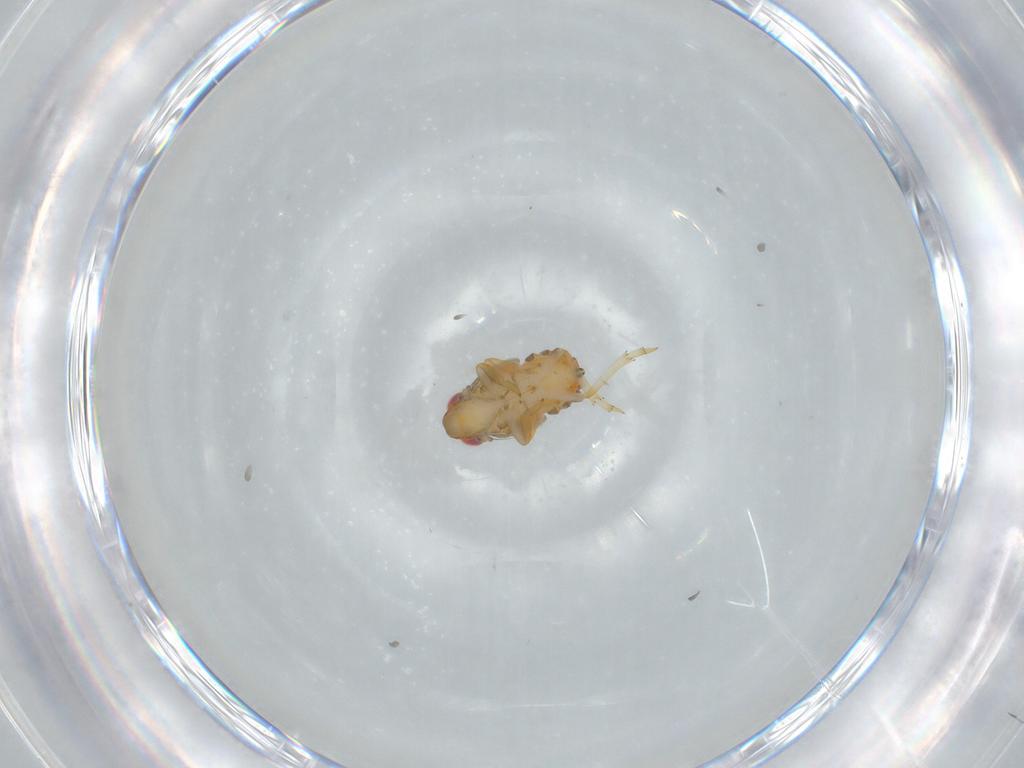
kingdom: Animalia
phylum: Arthropoda
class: Insecta
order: Hemiptera
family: Issidae
